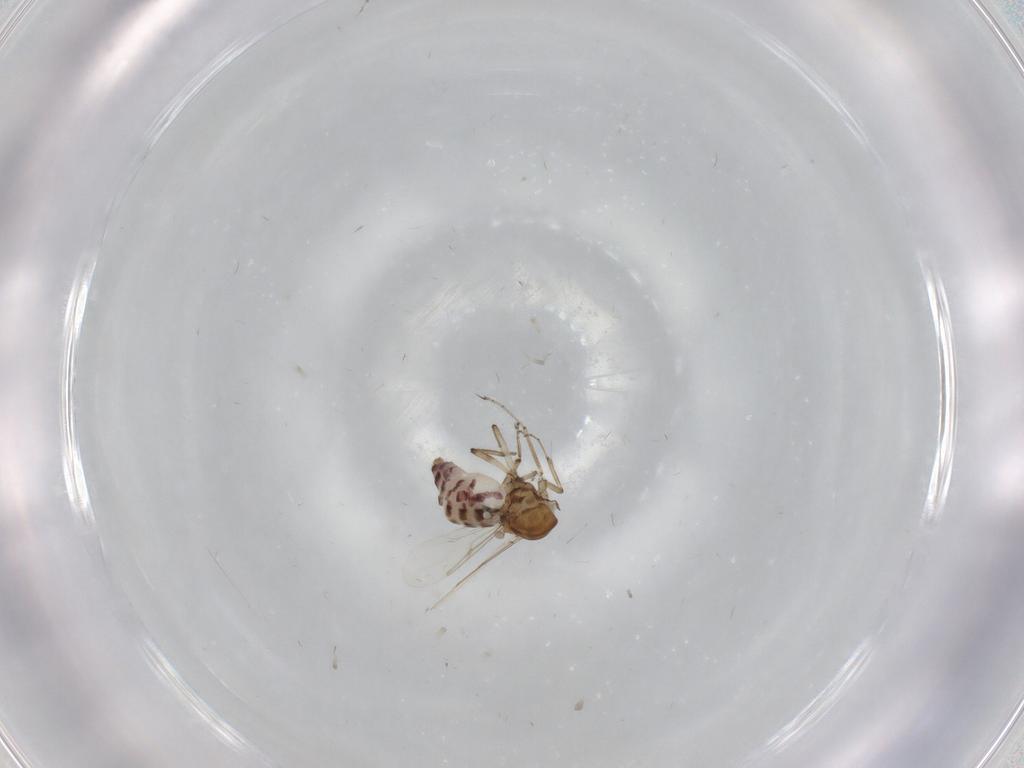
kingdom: Animalia
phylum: Arthropoda
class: Insecta
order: Diptera
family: Ceratopogonidae
